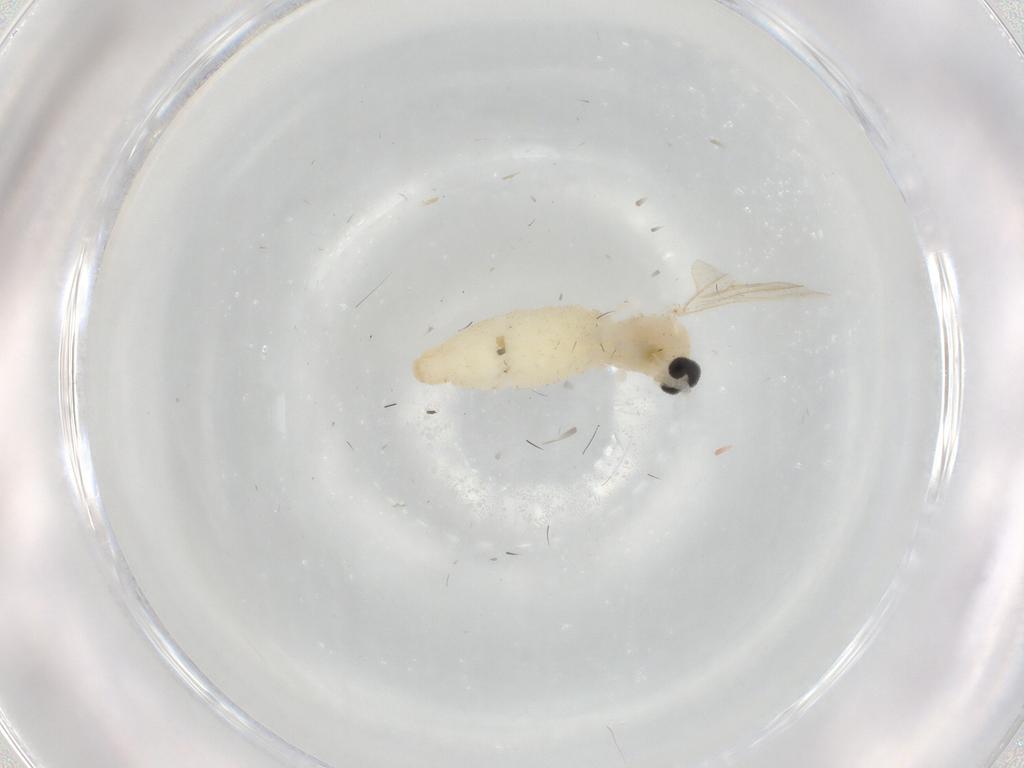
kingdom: Animalia
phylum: Arthropoda
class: Insecta
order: Diptera
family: Cecidomyiidae
